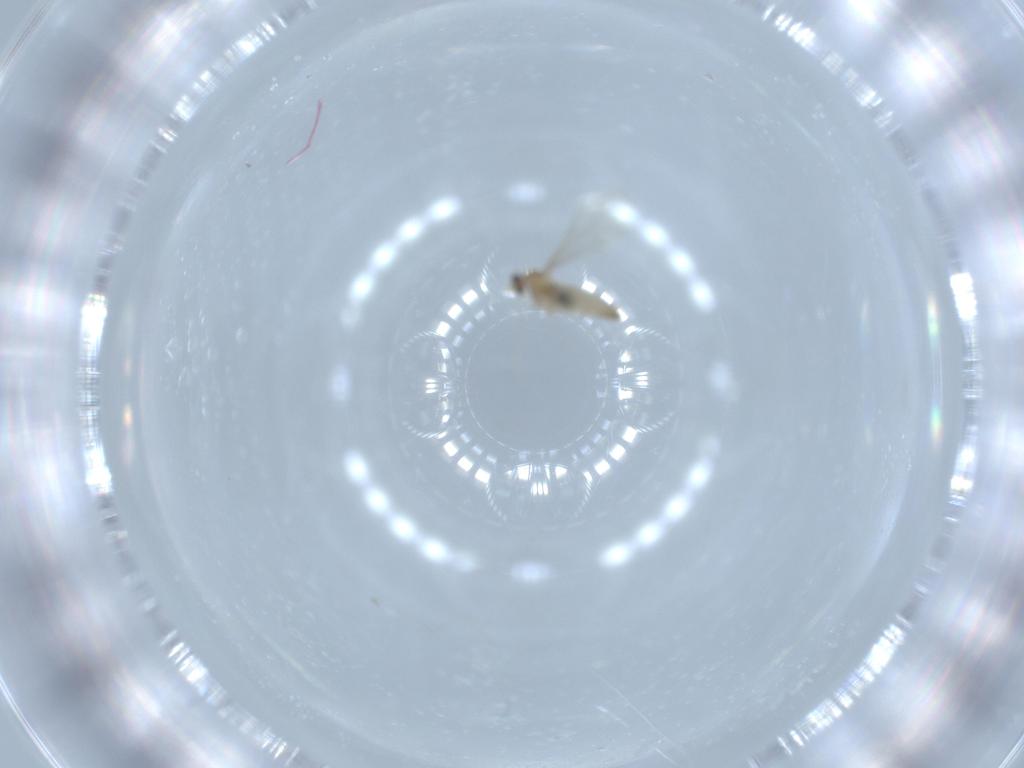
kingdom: Animalia
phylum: Arthropoda
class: Insecta
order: Diptera
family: Cecidomyiidae
